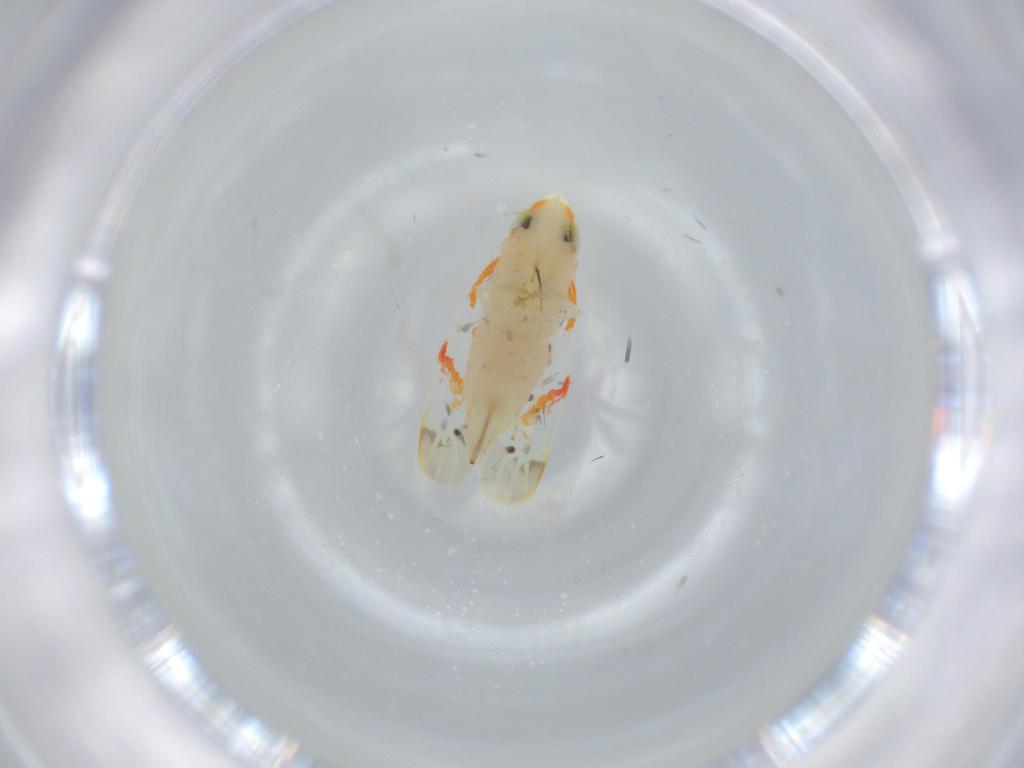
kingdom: Animalia
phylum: Arthropoda
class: Insecta
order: Hemiptera
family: Cicadellidae
